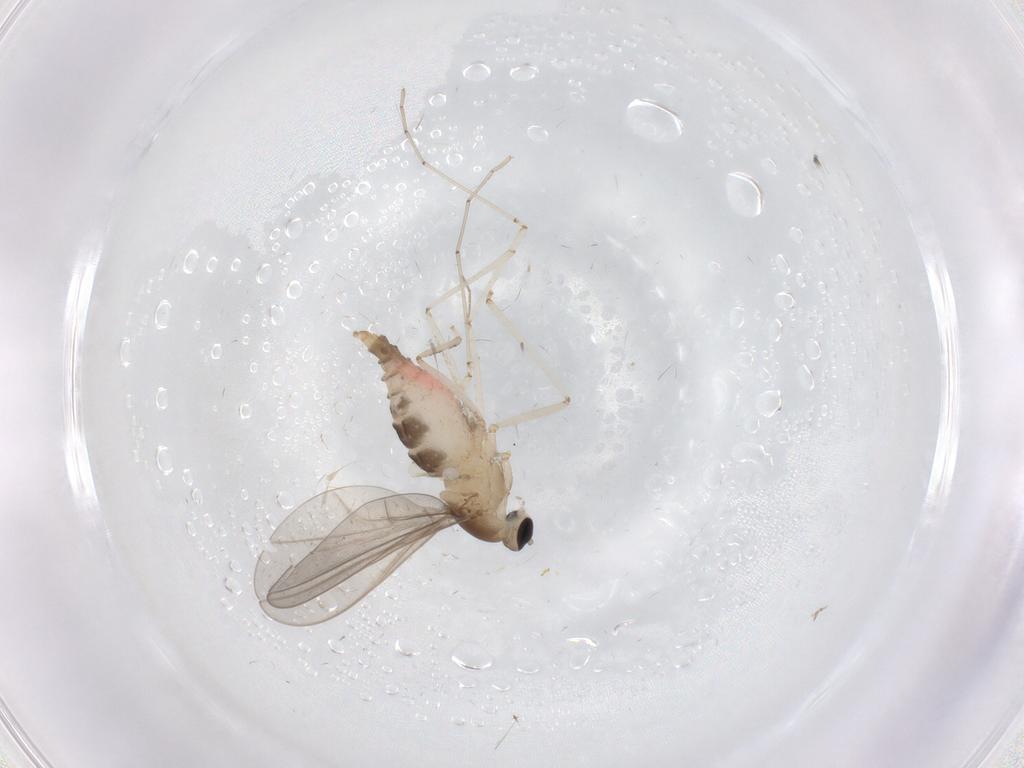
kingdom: Animalia
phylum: Arthropoda
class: Insecta
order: Diptera
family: Cecidomyiidae
